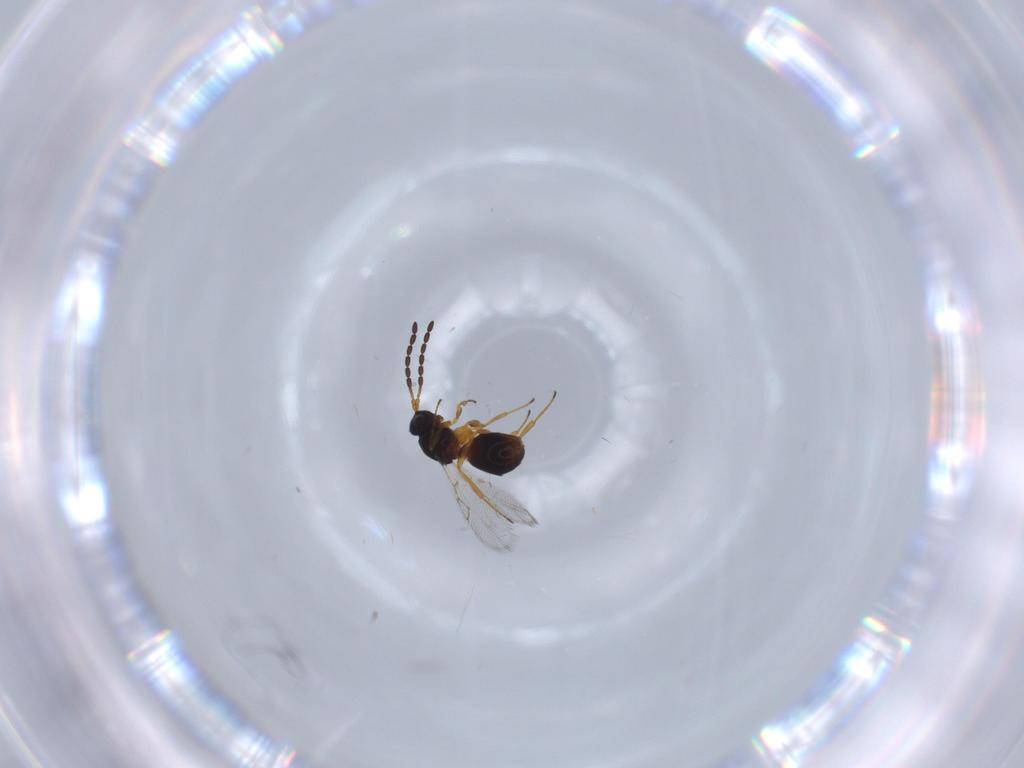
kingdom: Animalia
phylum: Arthropoda
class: Insecta
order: Hymenoptera
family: Figitidae
